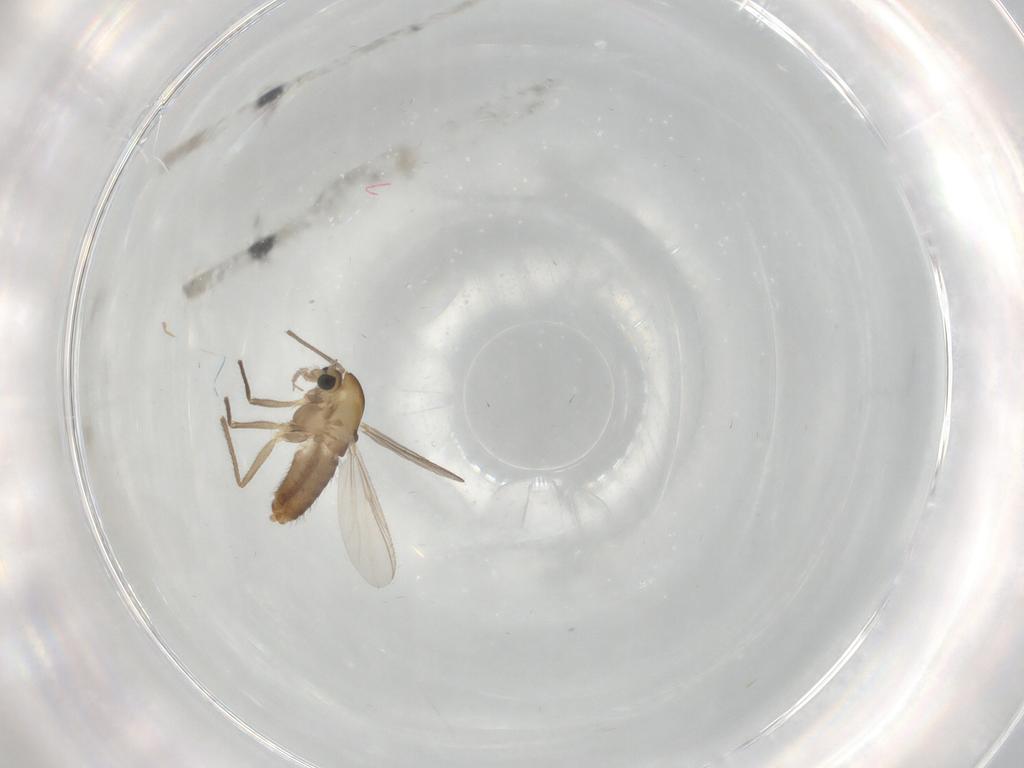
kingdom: Animalia
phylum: Arthropoda
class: Insecta
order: Diptera
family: Chironomidae
